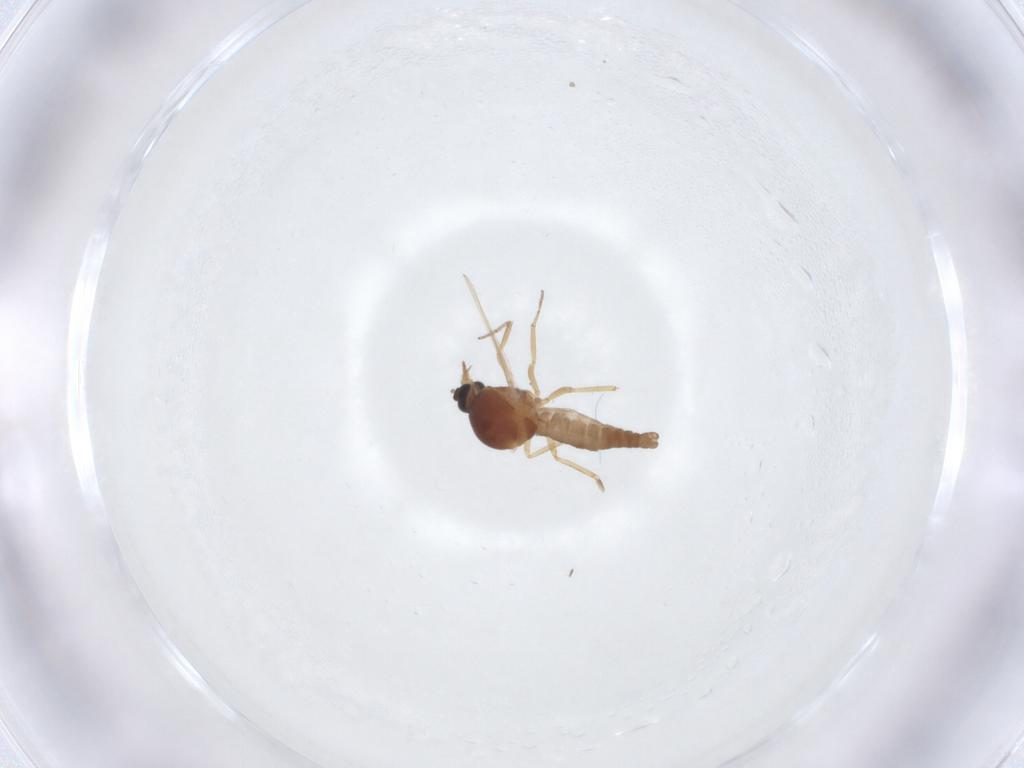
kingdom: Animalia
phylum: Arthropoda
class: Insecta
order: Diptera
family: Ceratopogonidae
